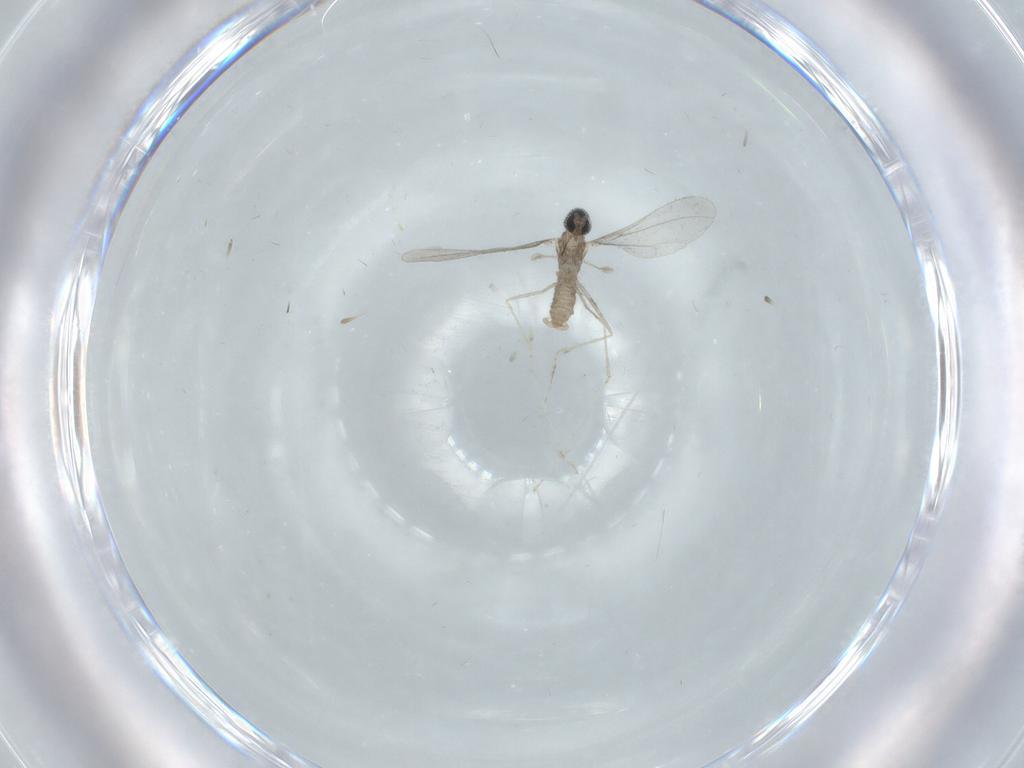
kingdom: Animalia
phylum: Arthropoda
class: Insecta
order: Diptera
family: Cecidomyiidae
